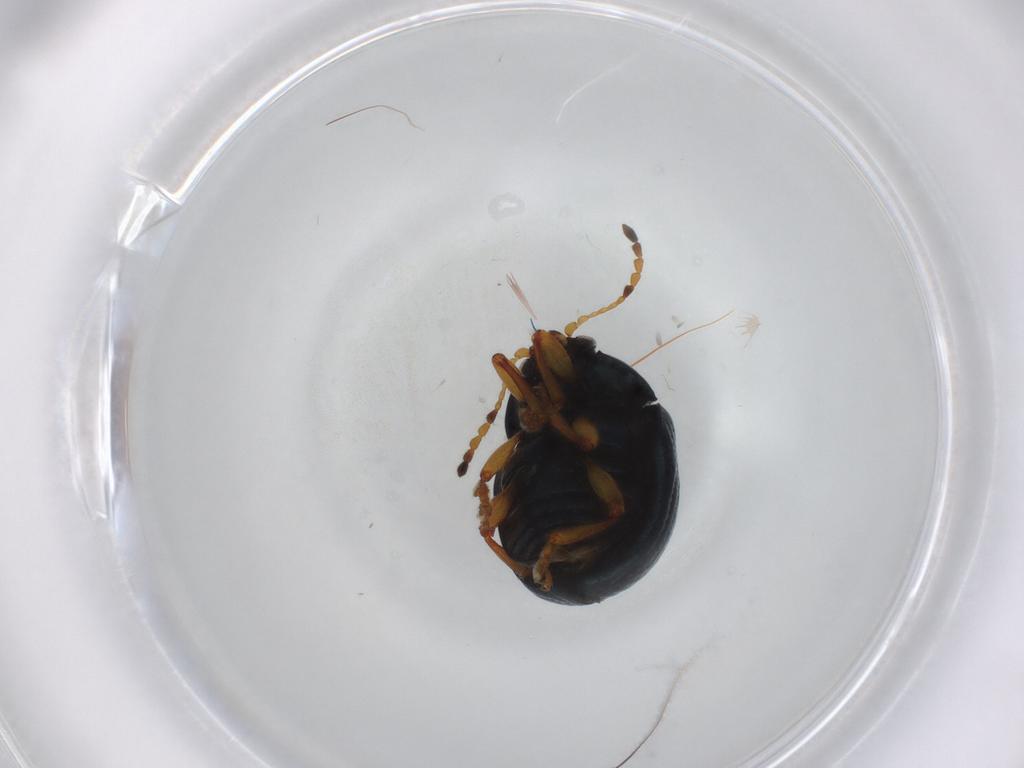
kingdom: Animalia
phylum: Arthropoda
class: Insecta
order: Coleoptera
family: Chrysomelidae
